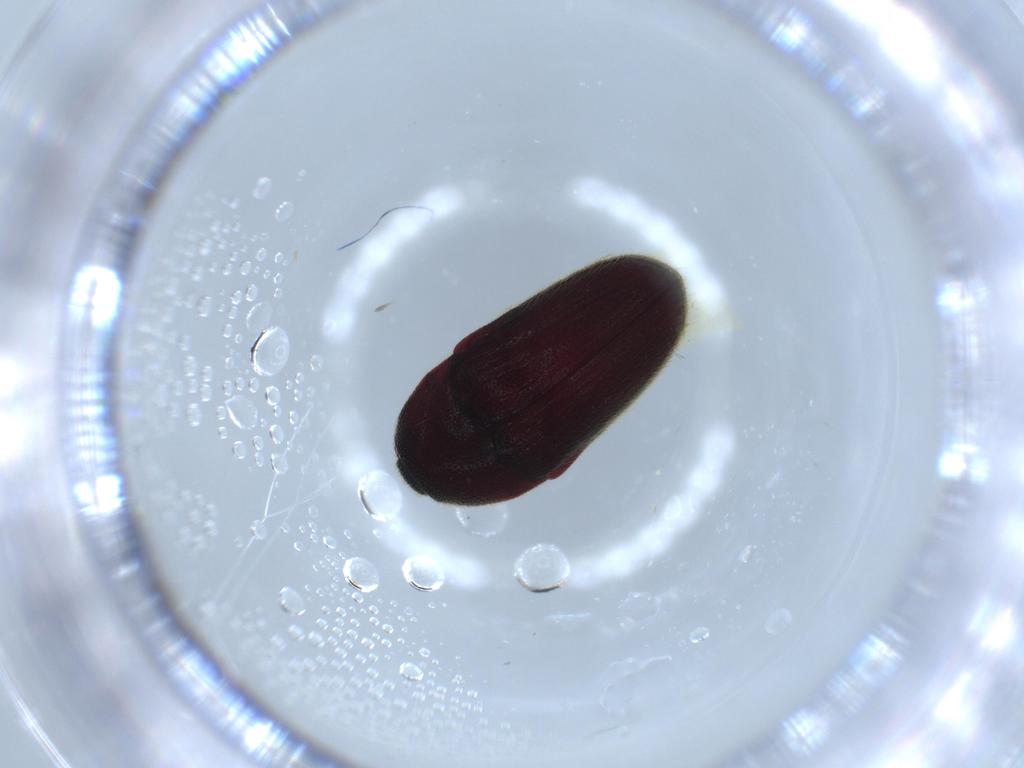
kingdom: Animalia
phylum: Arthropoda
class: Insecta
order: Coleoptera
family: Throscidae
